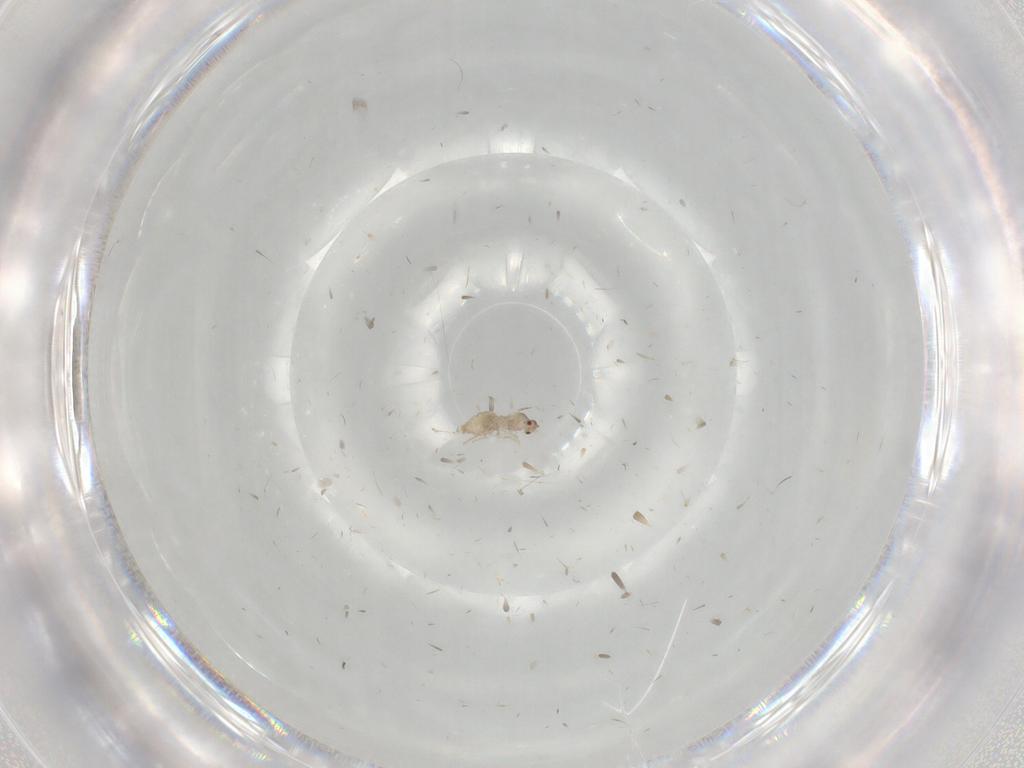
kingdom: Animalia
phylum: Arthropoda
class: Insecta
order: Diptera
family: Cecidomyiidae
